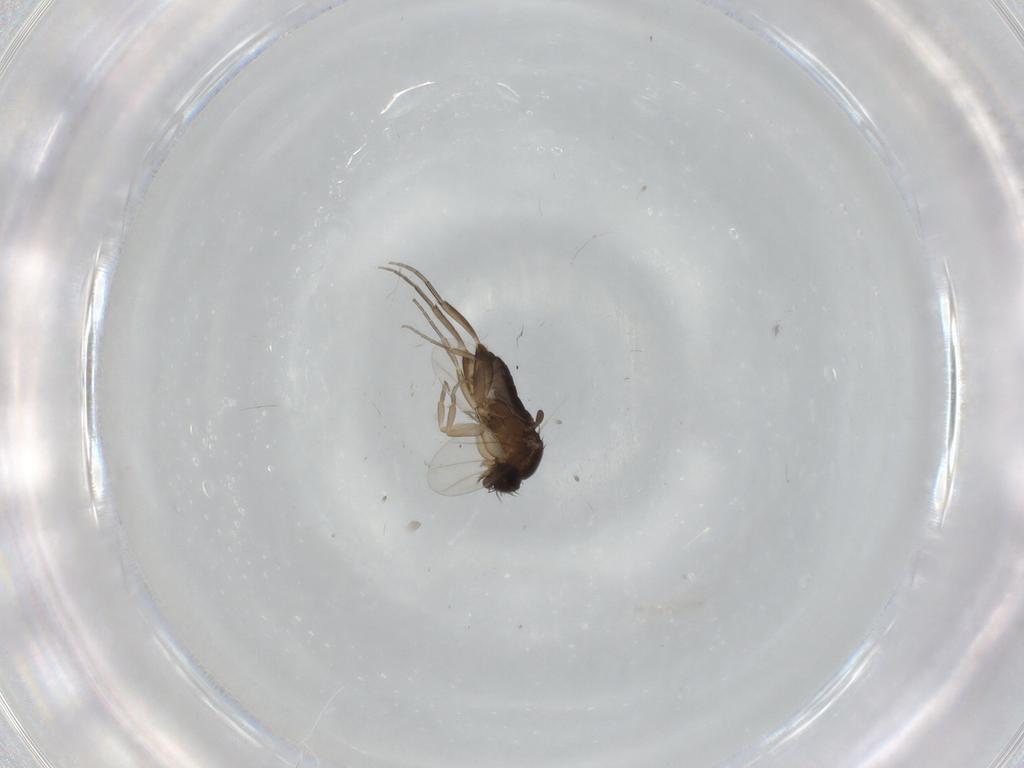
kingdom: Animalia
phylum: Arthropoda
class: Insecta
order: Diptera
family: Phoridae
